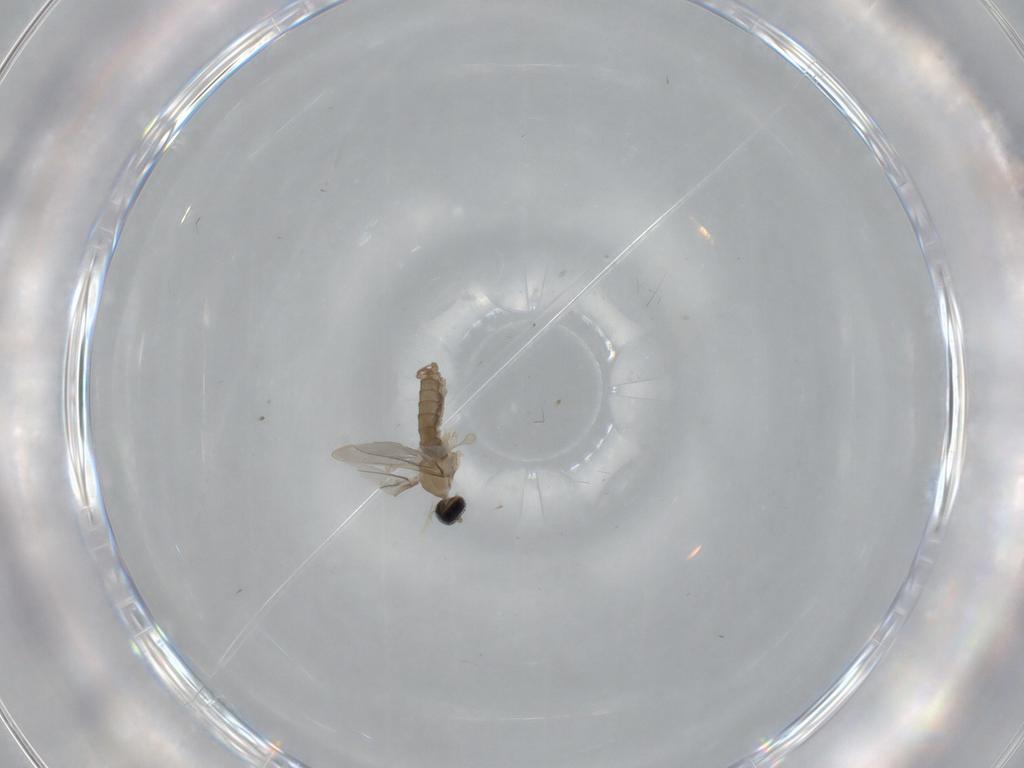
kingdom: Animalia
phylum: Arthropoda
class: Insecta
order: Diptera
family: Cecidomyiidae
